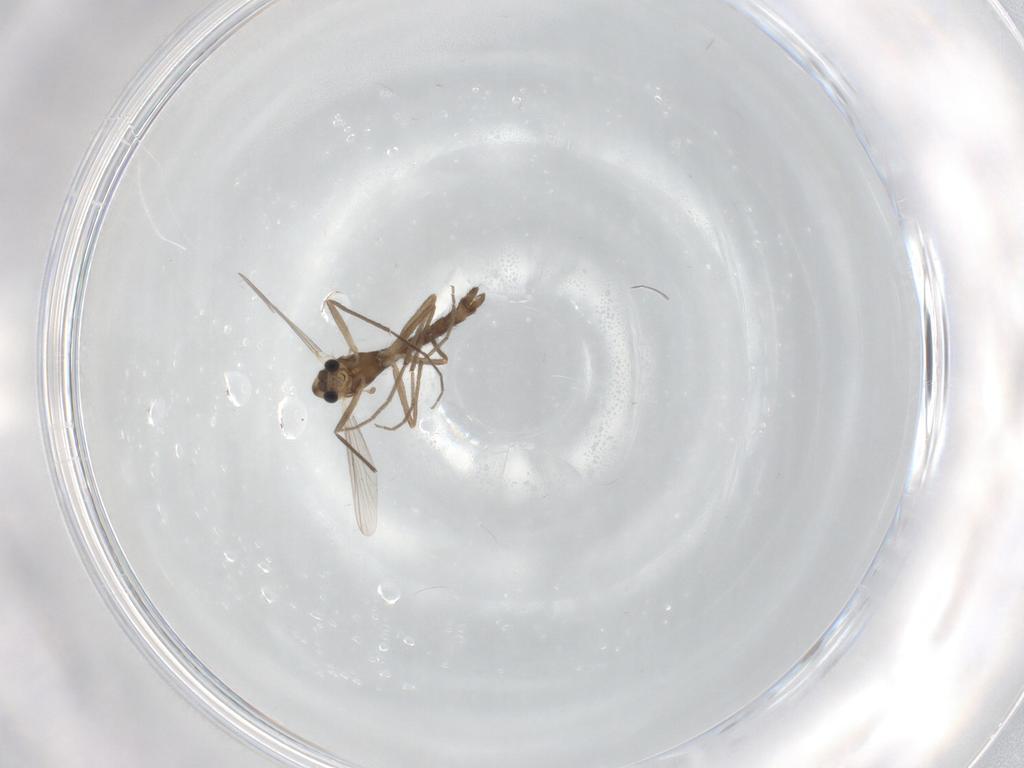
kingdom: Animalia
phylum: Arthropoda
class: Insecta
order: Diptera
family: Chironomidae
